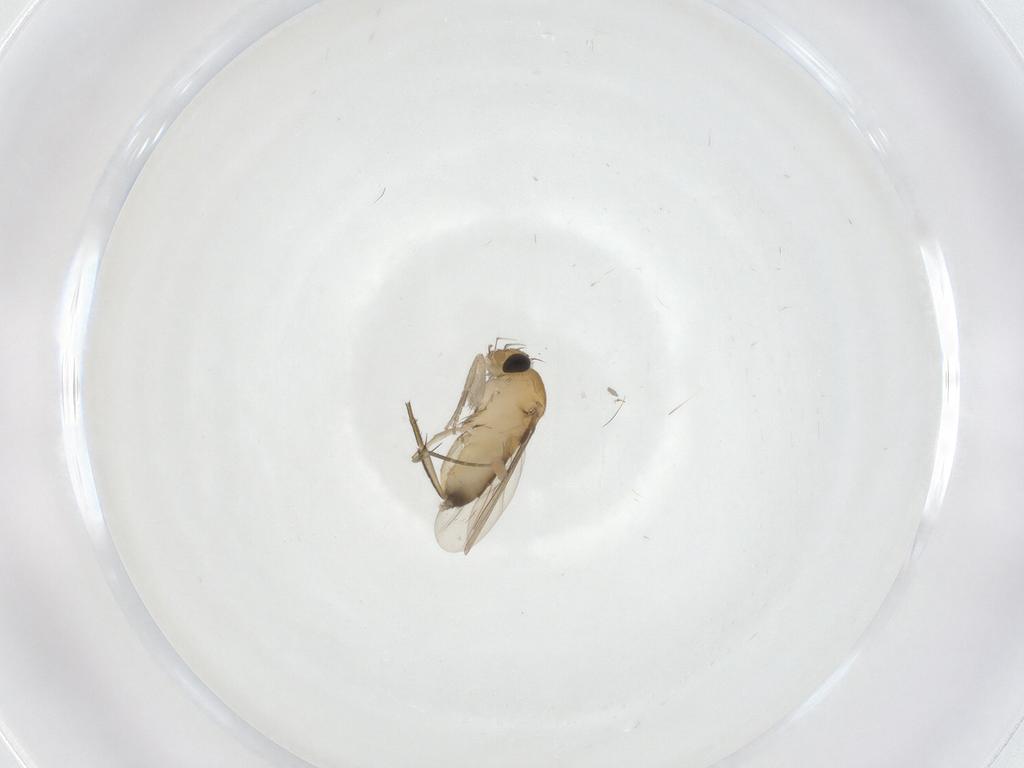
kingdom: Animalia
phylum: Arthropoda
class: Insecta
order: Diptera
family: Phoridae
